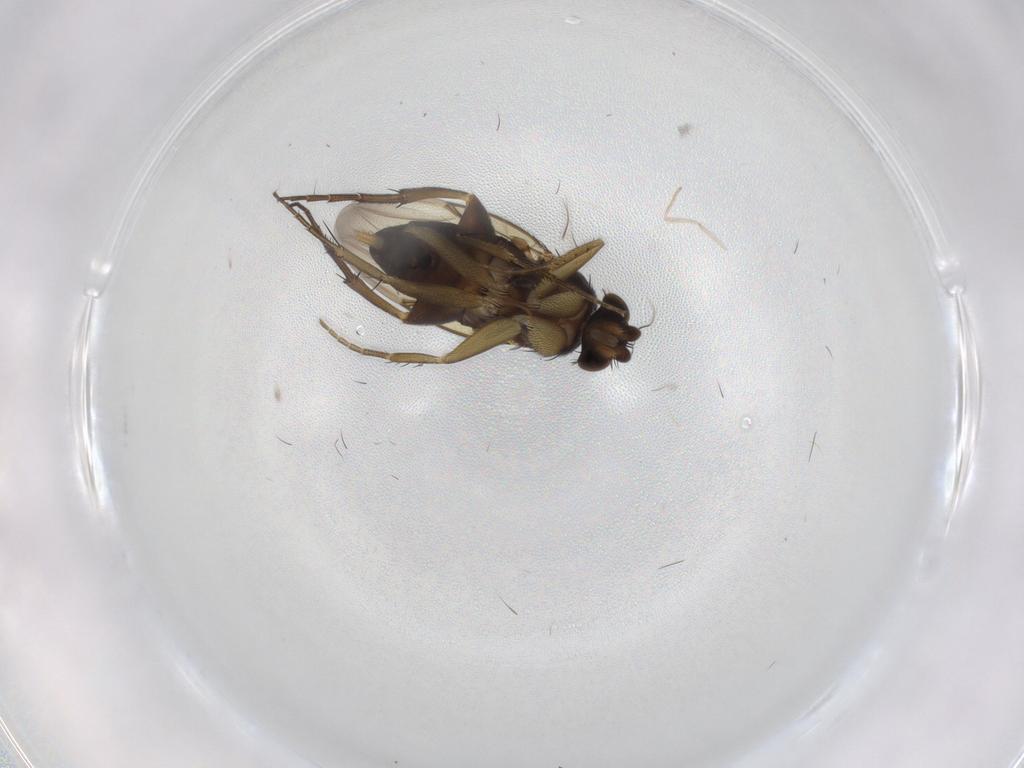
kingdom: Animalia
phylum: Arthropoda
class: Insecta
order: Diptera
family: Phoridae
